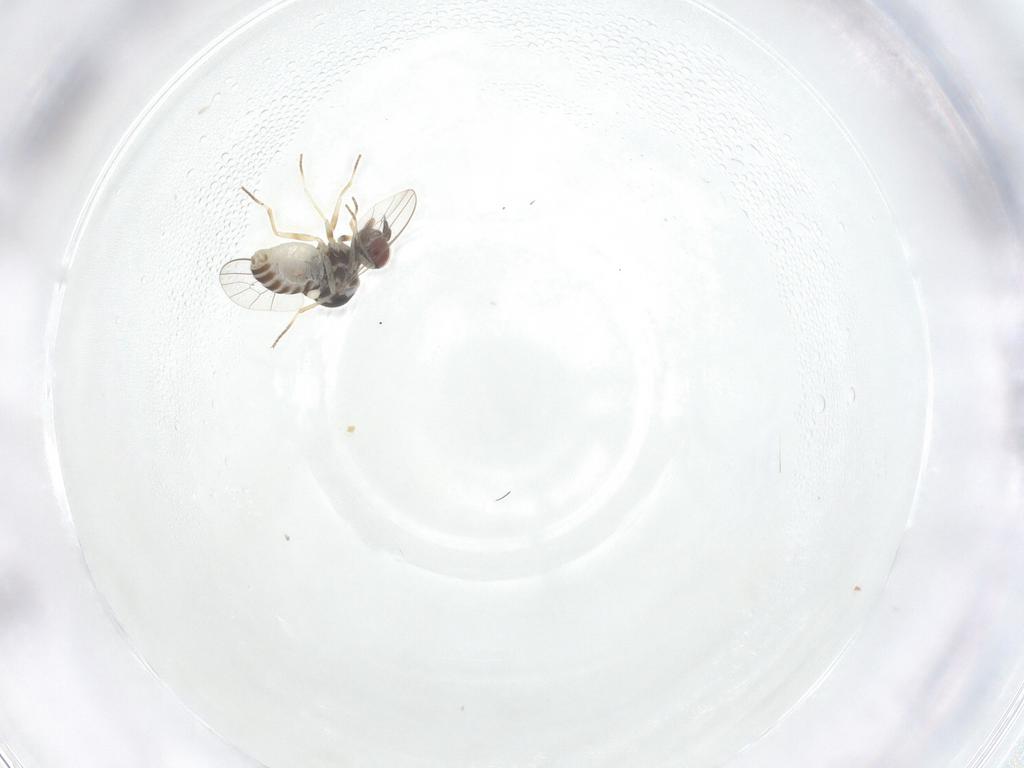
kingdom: Animalia
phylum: Arthropoda
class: Insecta
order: Diptera
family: Bombyliidae
